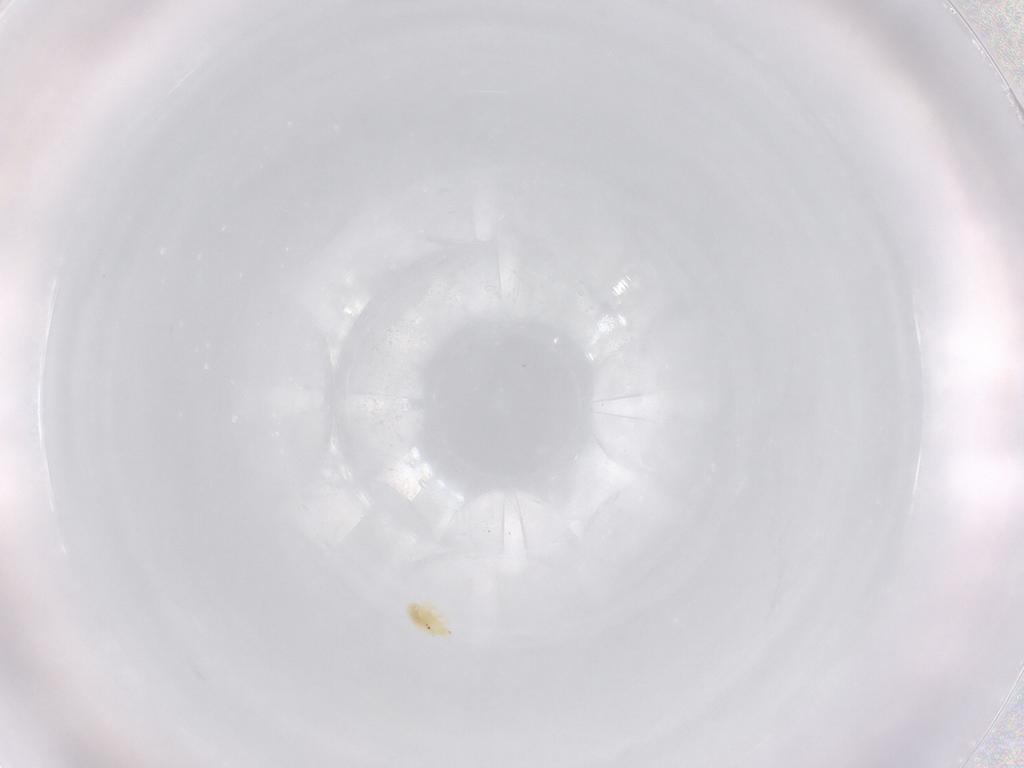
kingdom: Animalia
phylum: Arthropoda
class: Arachnida
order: Trombidiformes
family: Bdellidae
